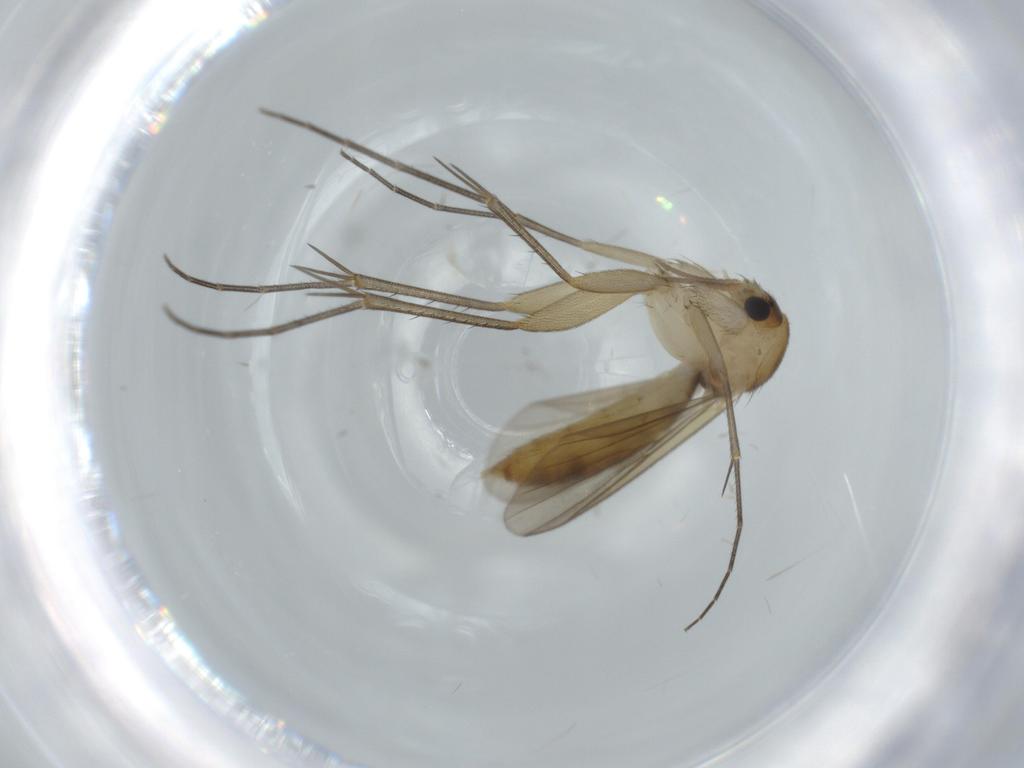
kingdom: Animalia
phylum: Arthropoda
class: Insecta
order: Diptera
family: Mycetophilidae
